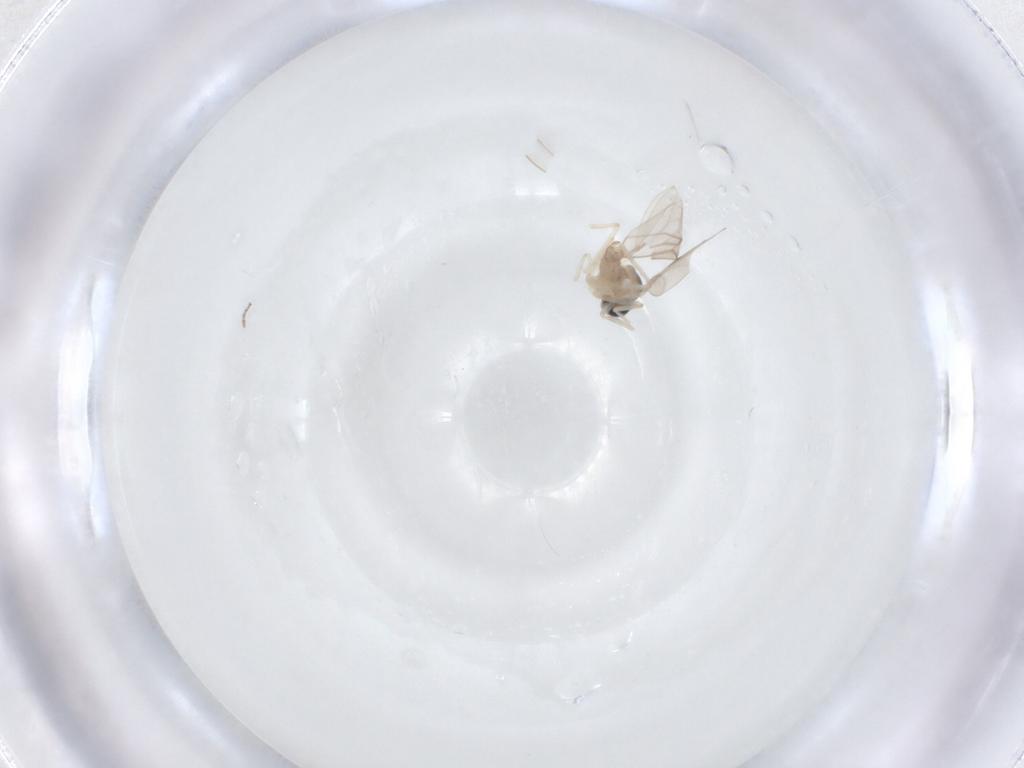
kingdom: Animalia
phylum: Arthropoda
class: Insecta
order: Diptera
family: Cecidomyiidae
